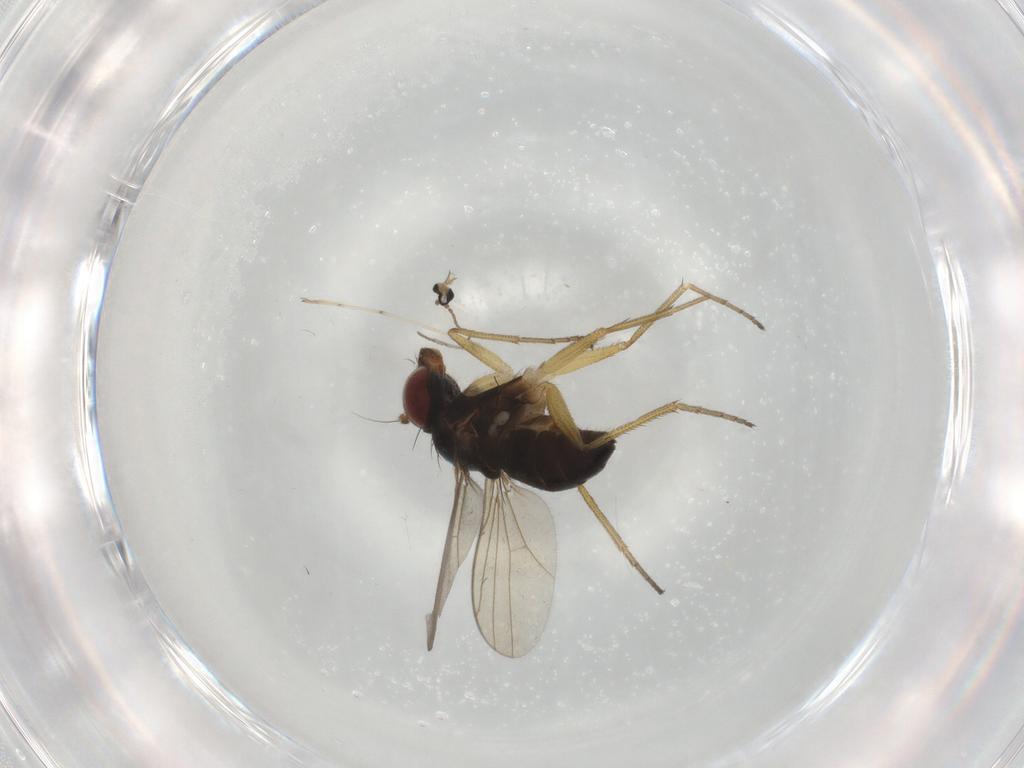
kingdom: Animalia
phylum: Arthropoda
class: Insecta
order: Diptera
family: Dolichopodidae
